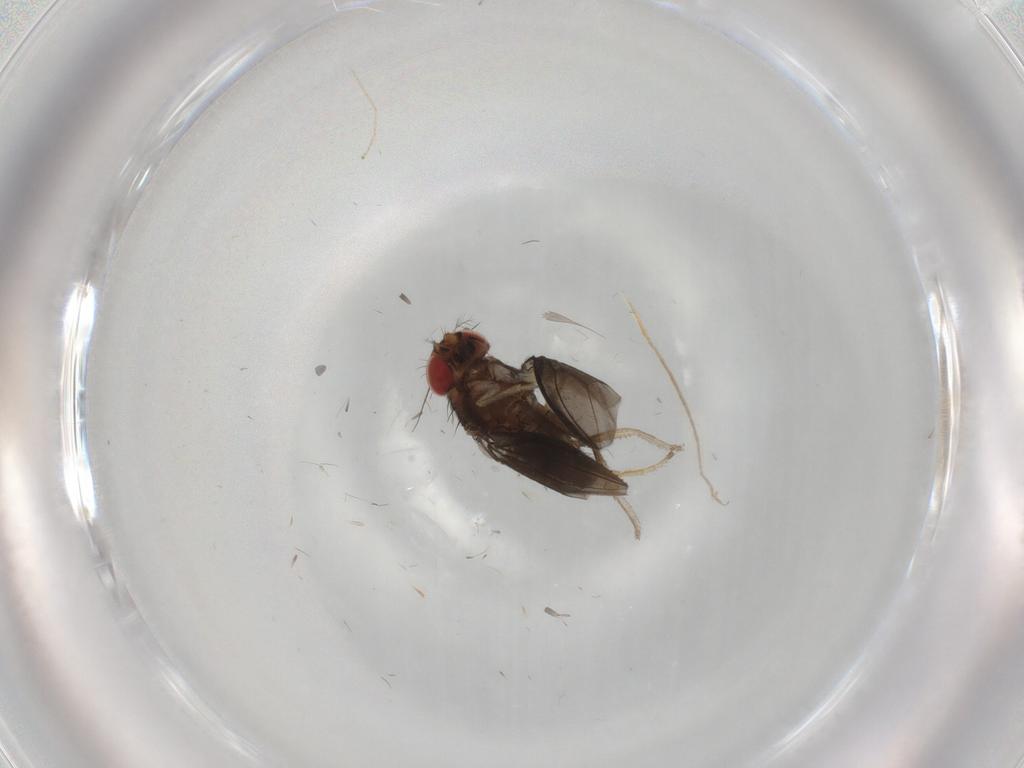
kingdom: Animalia
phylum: Arthropoda
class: Insecta
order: Diptera
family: Drosophilidae
